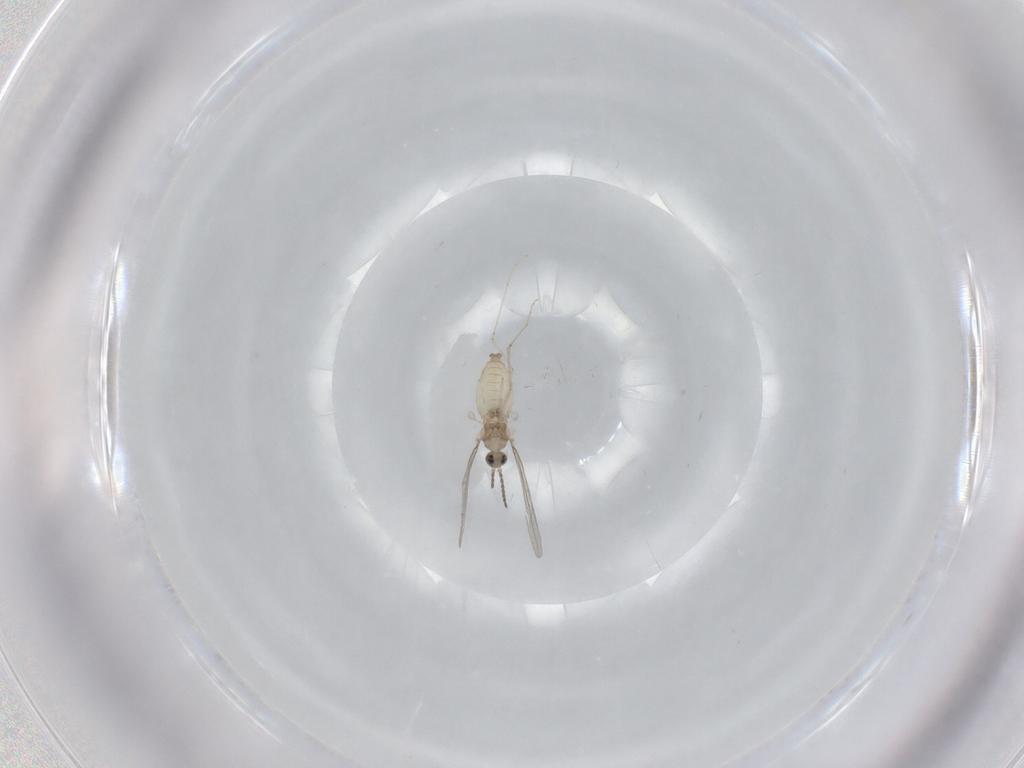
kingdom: Animalia
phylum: Arthropoda
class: Insecta
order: Diptera
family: Cecidomyiidae
